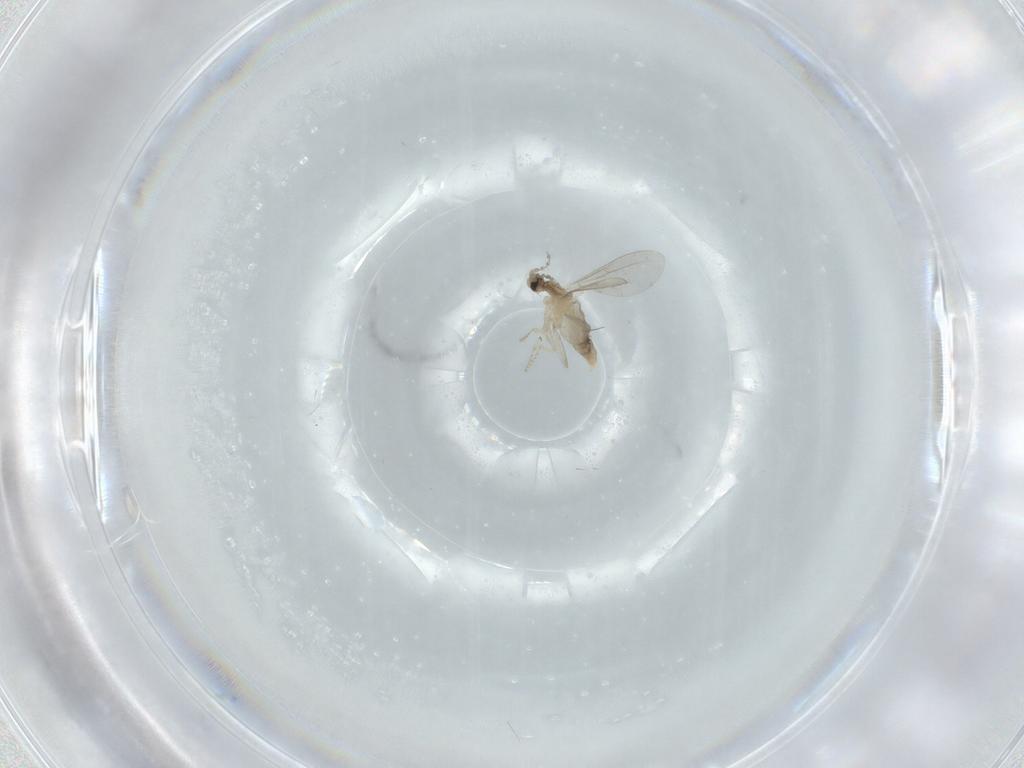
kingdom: Animalia
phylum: Arthropoda
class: Insecta
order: Diptera
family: Cecidomyiidae
